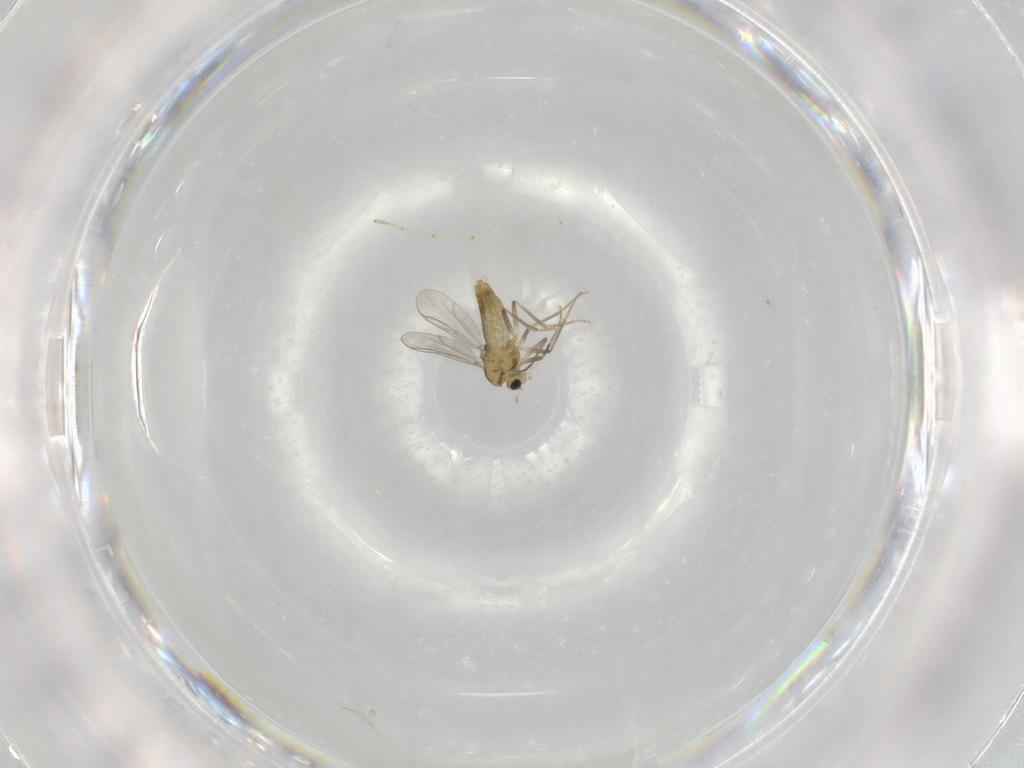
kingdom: Animalia
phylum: Arthropoda
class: Insecta
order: Diptera
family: Chironomidae
